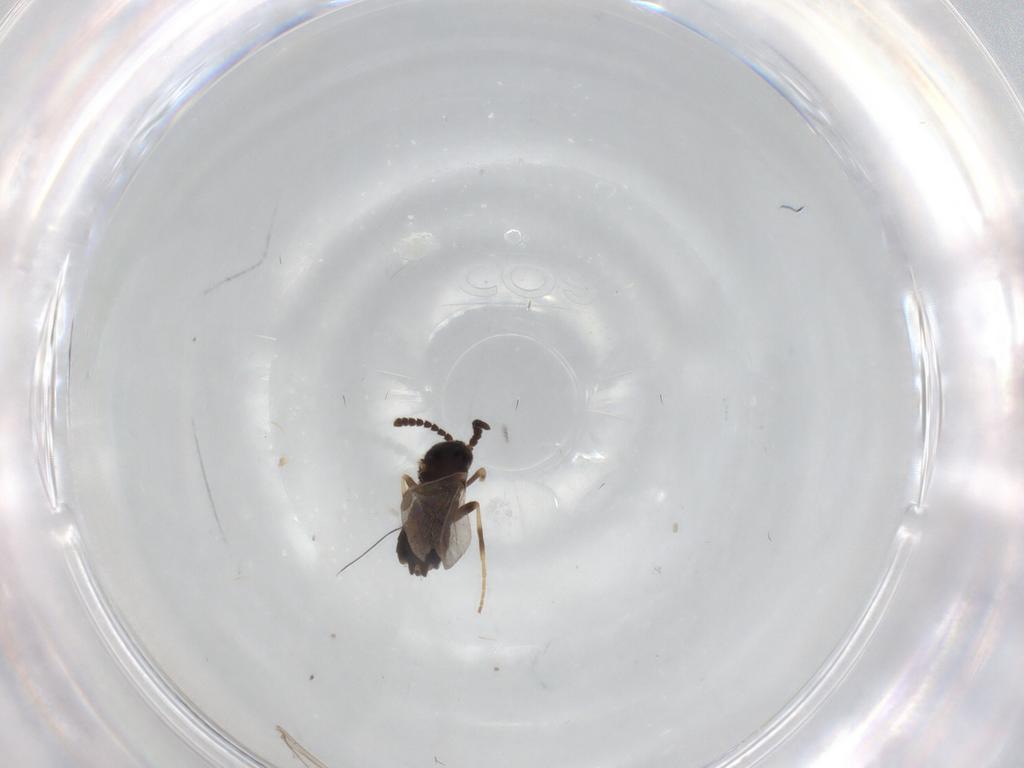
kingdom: Animalia
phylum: Arthropoda
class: Insecta
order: Diptera
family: Scatopsidae
